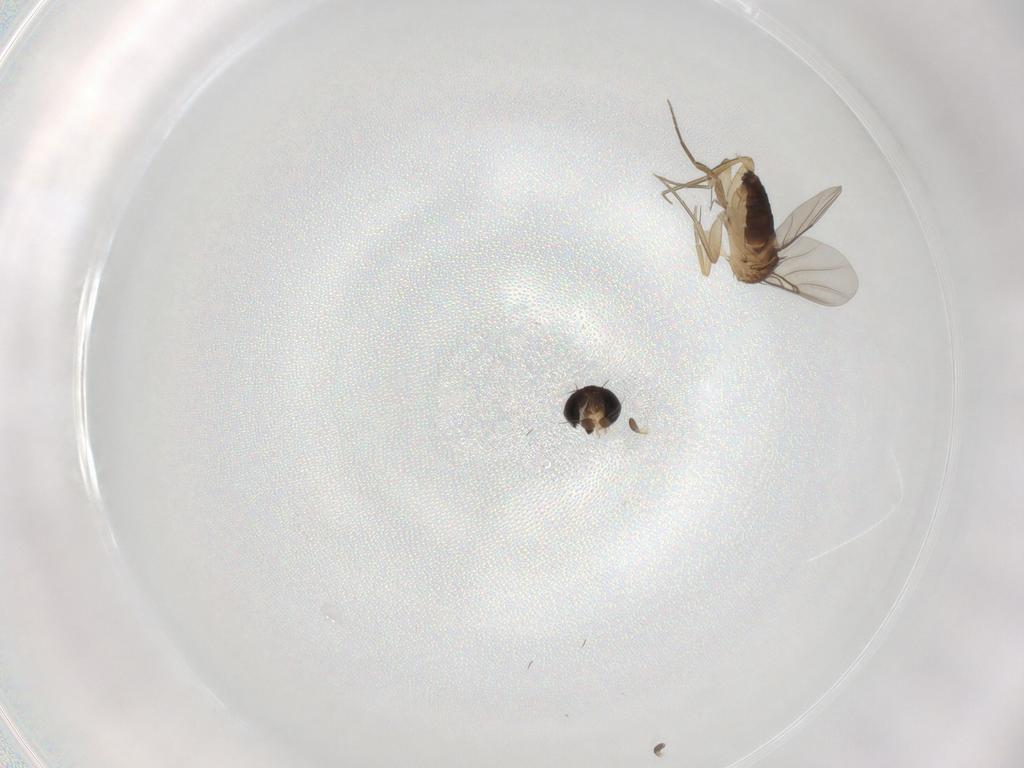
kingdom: Animalia
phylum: Arthropoda
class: Insecta
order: Diptera
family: Phoridae
